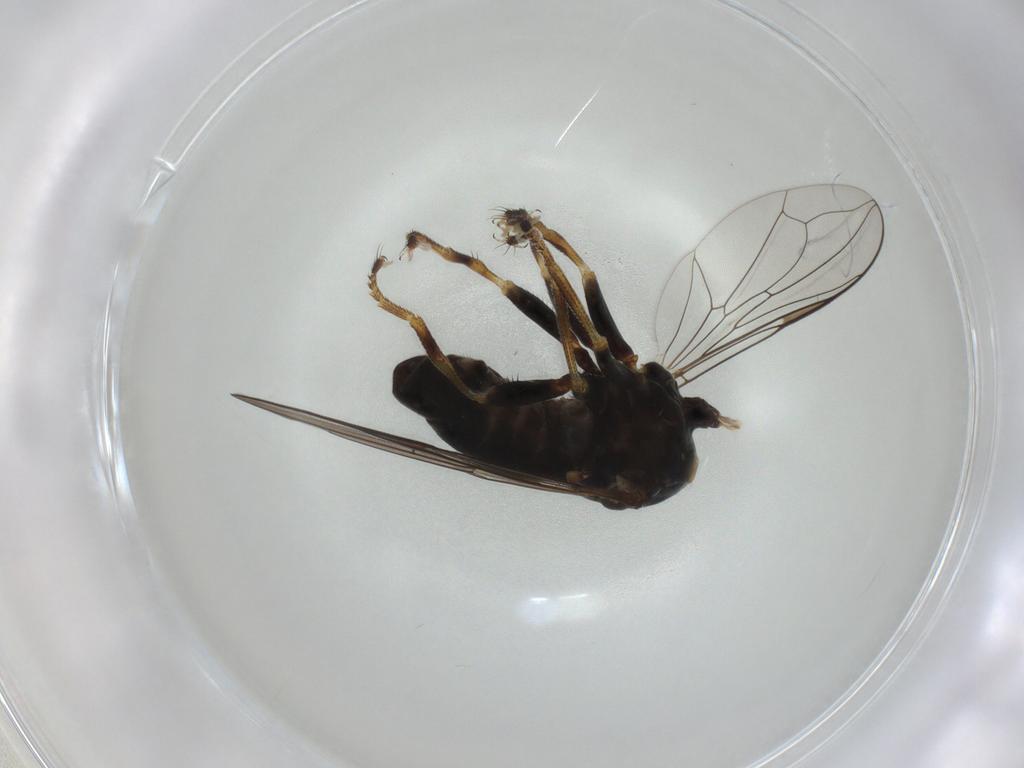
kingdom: Animalia
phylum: Arthropoda
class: Insecta
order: Diptera
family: Pipunculidae
